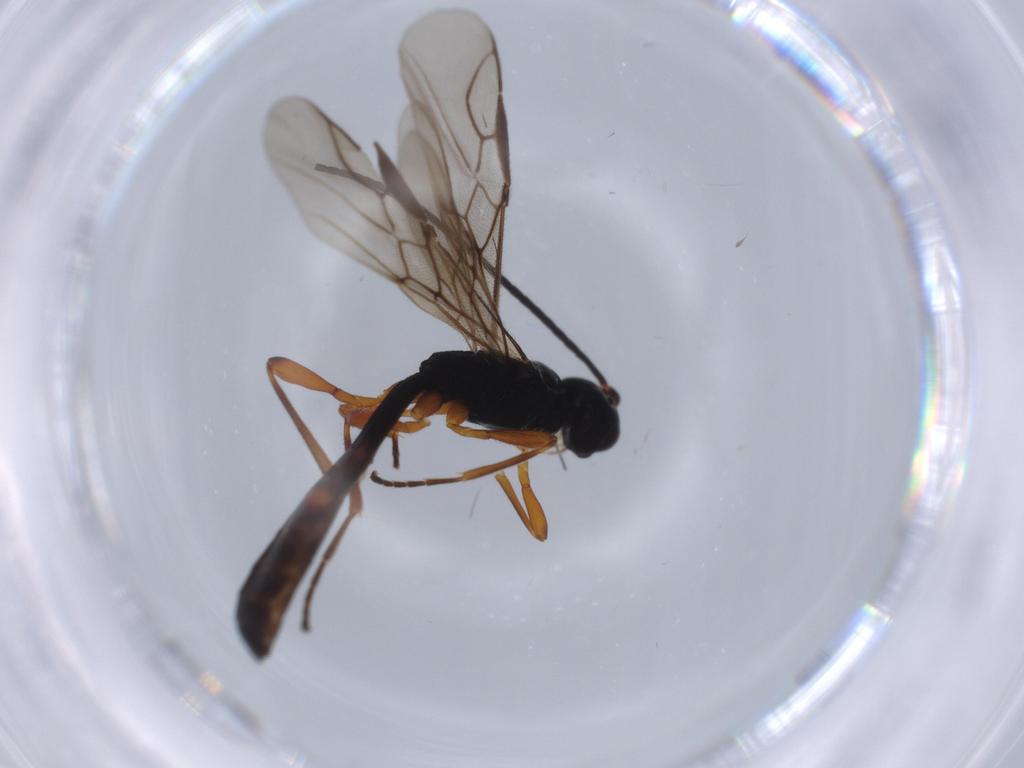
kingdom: Animalia
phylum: Arthropoda
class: Insecta
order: Hymenoptera
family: Braconidae
